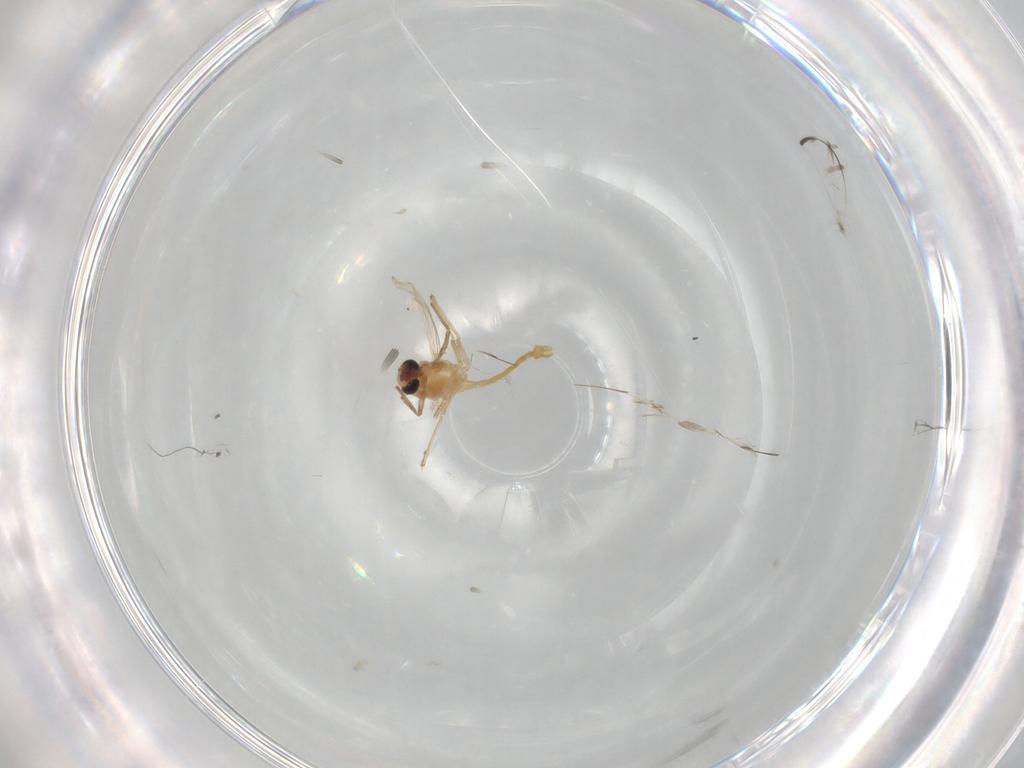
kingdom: Animalia
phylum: Arthropoda
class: Insecta
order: Diptera
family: Chironomidae
